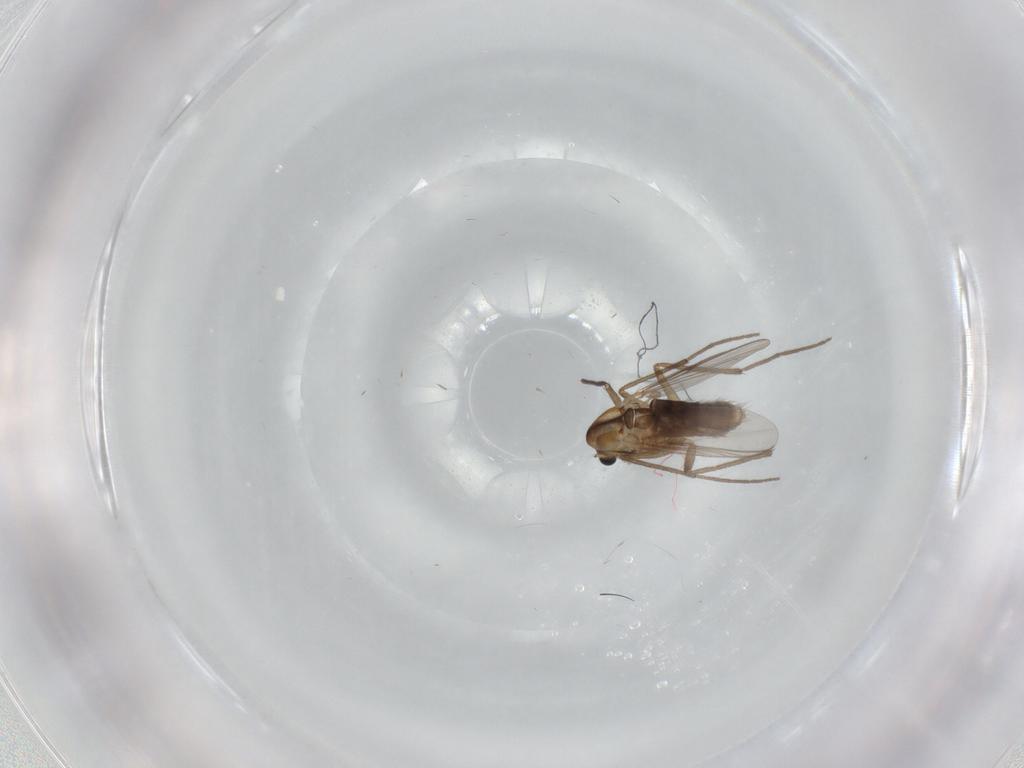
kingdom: Animalia
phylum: Arthropoda
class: Insecta
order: Diptera
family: Chironomidae
